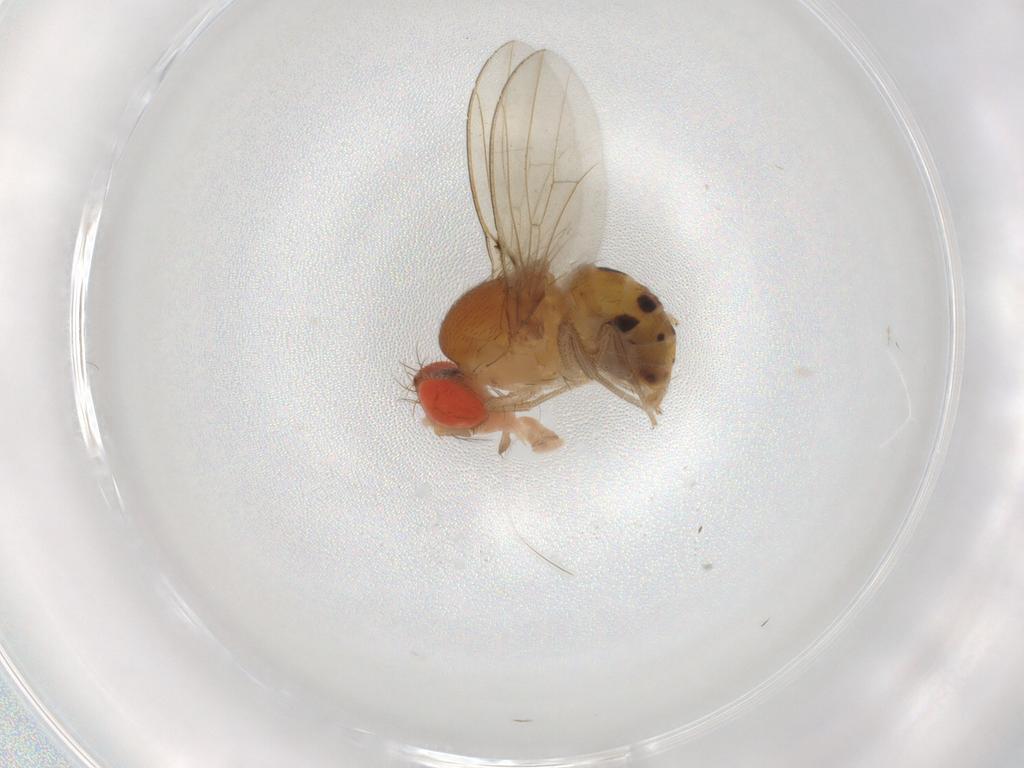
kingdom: Animalia
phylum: Arthropoda
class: Insecta
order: Diptera
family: Drosophilidae
